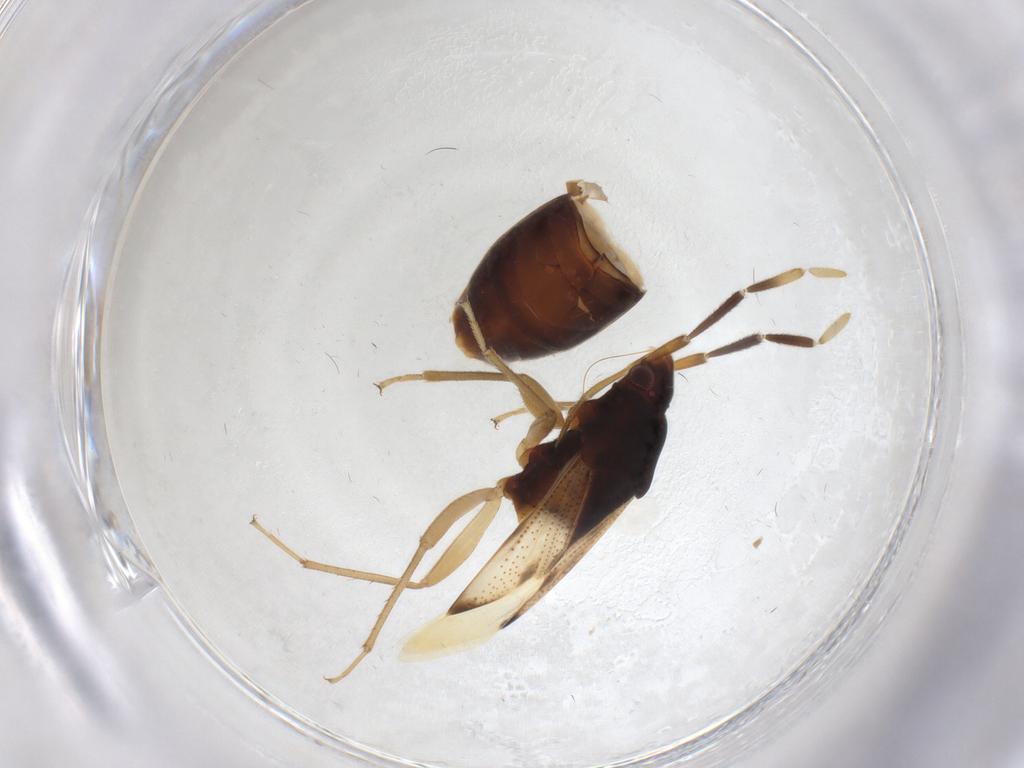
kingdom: Animalia
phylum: Arthropoda
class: Insecta
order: Hemiptera
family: Rhyparochromidae
